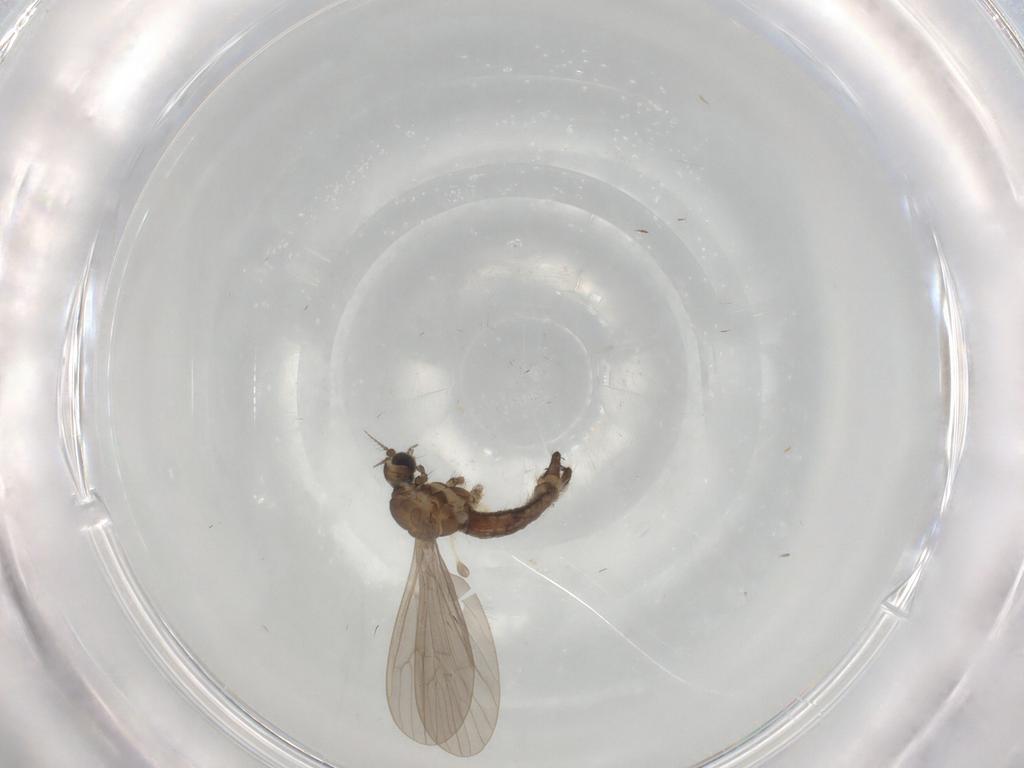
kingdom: Animalia
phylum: Arthropoda
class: Insecta
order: Diptera
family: Limoniidae
